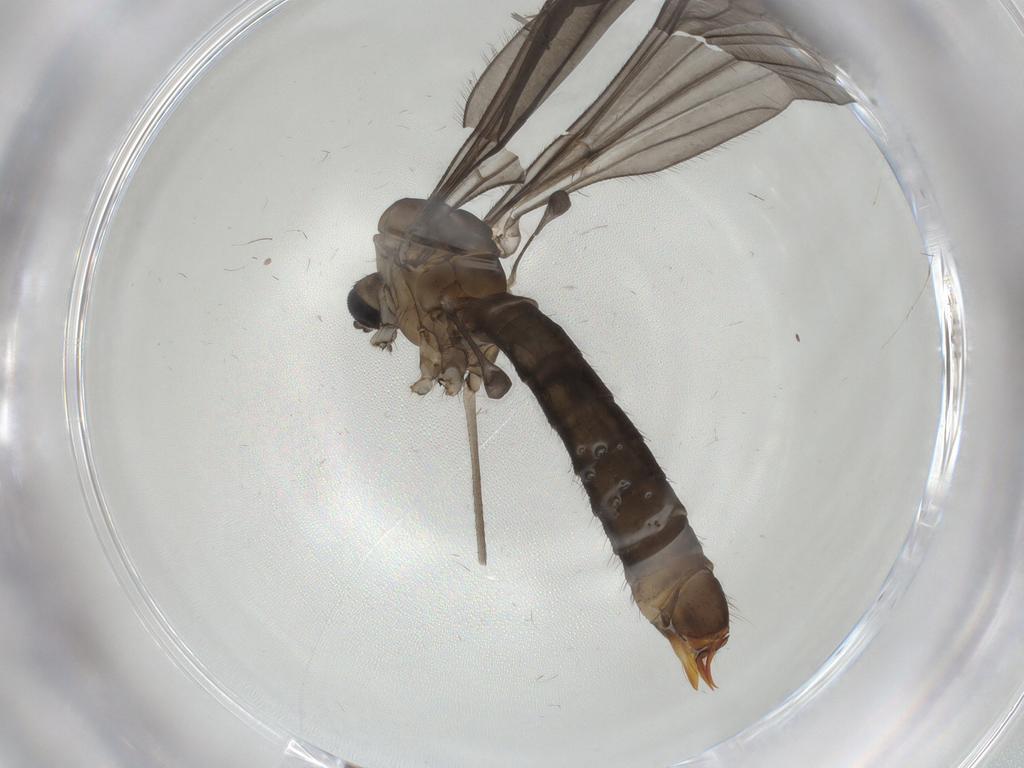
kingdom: Animalia
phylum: Arthropoda
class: Insecta
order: Diptera
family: Limoniidae
